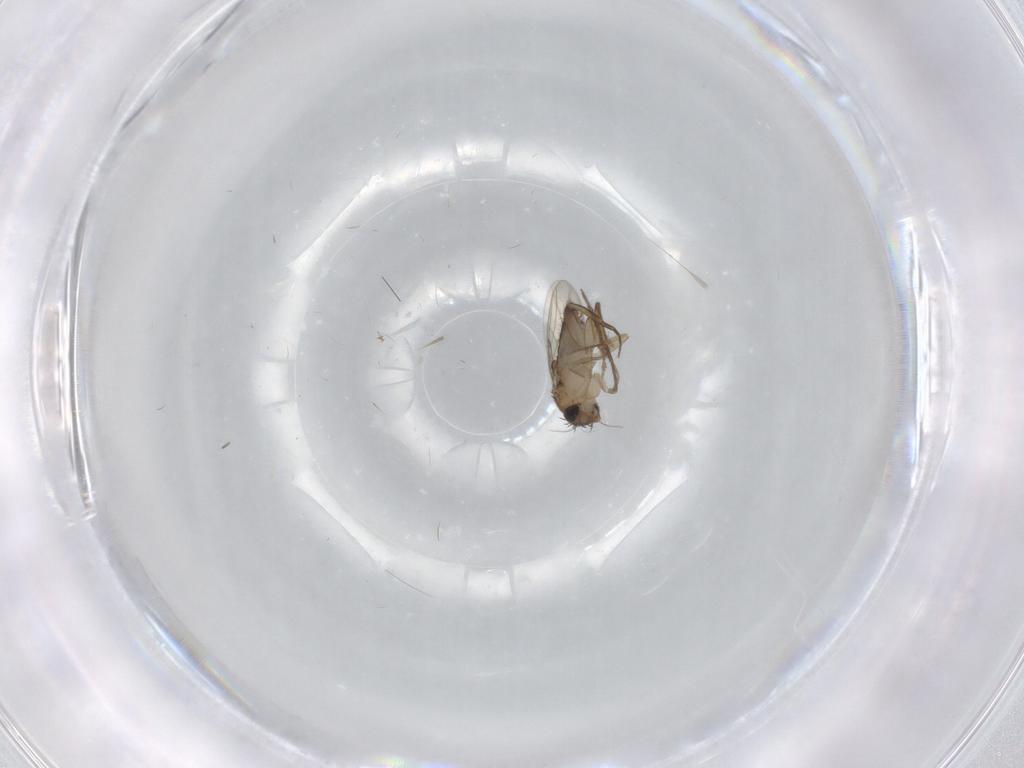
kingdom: Animalia
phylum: Arthropoda
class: Insecta
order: Diptera
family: Phoridae
